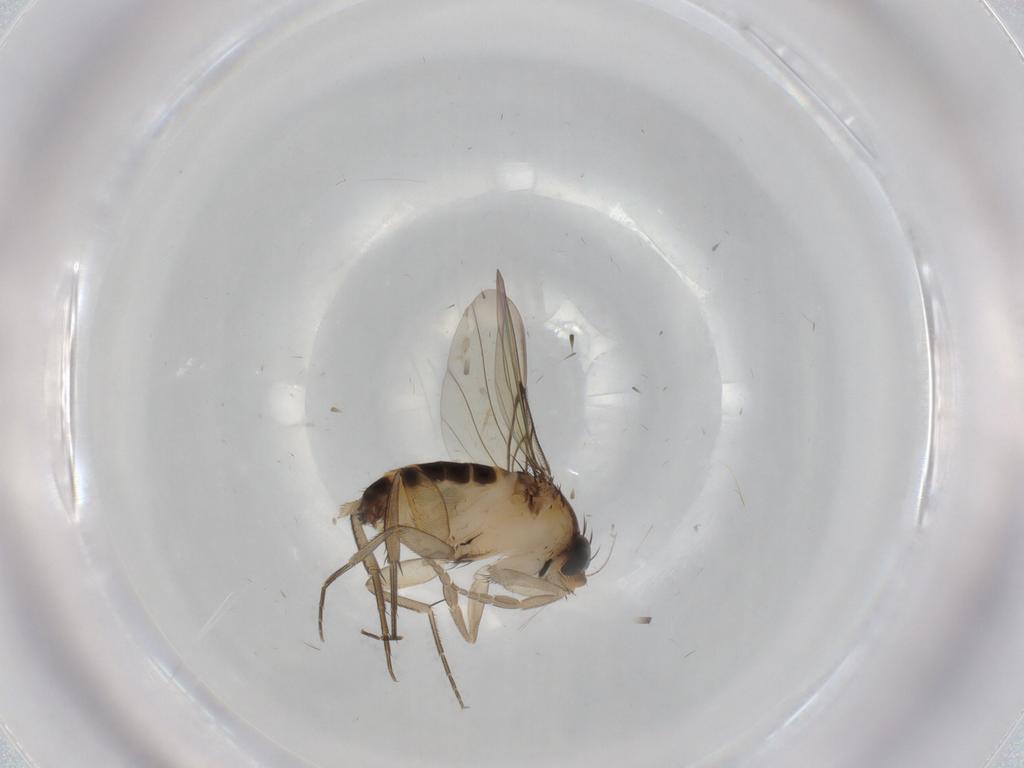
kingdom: Animalia
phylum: Arthropoda
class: Insecta
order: Diptera
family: Phoridae
